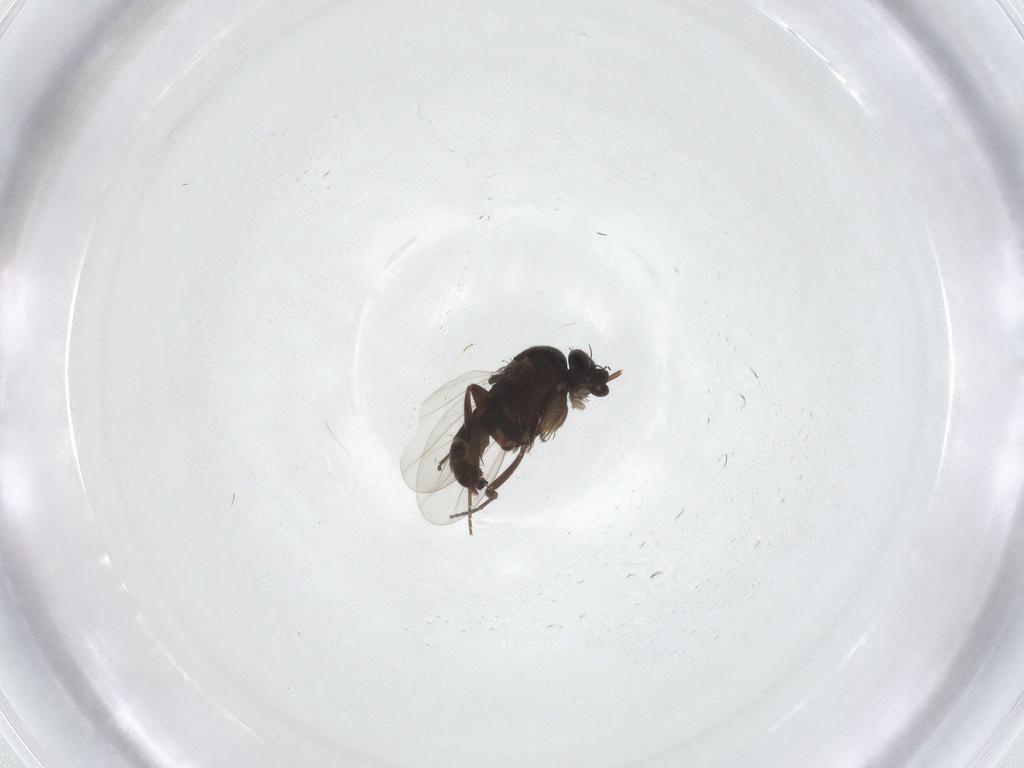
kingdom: Animalia
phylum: Arthropoda
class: Insecta
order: Diptera
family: Phoridae
